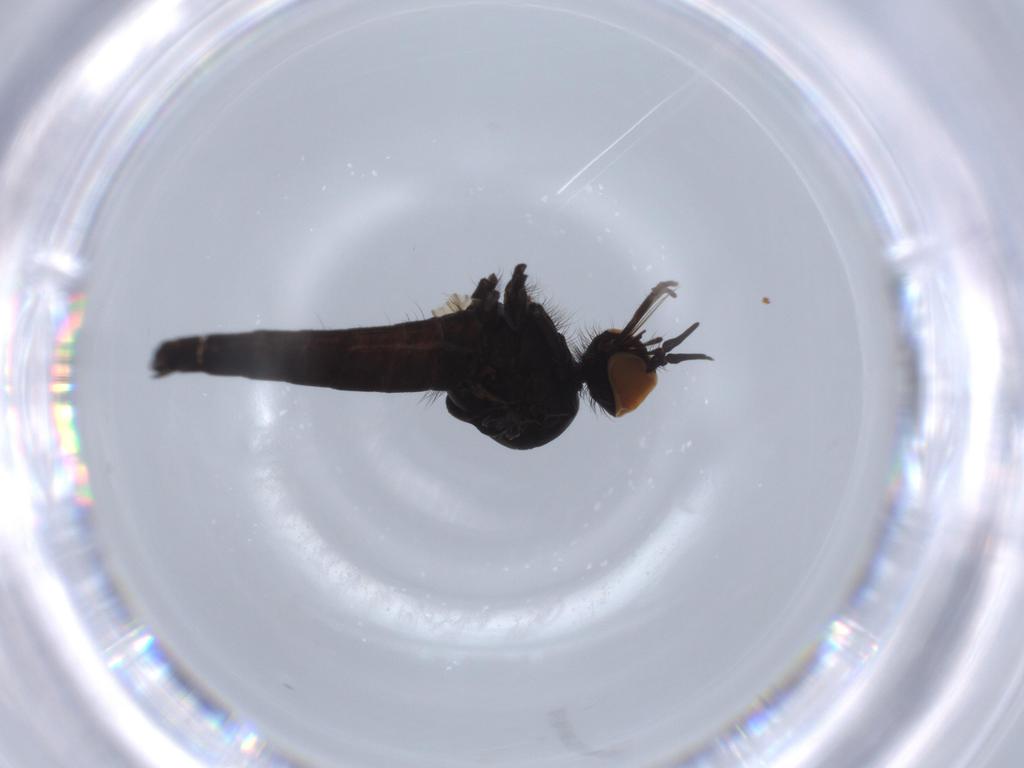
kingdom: Animalia
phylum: Arthropoda
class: Insecta
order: Diptera
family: Empididae
